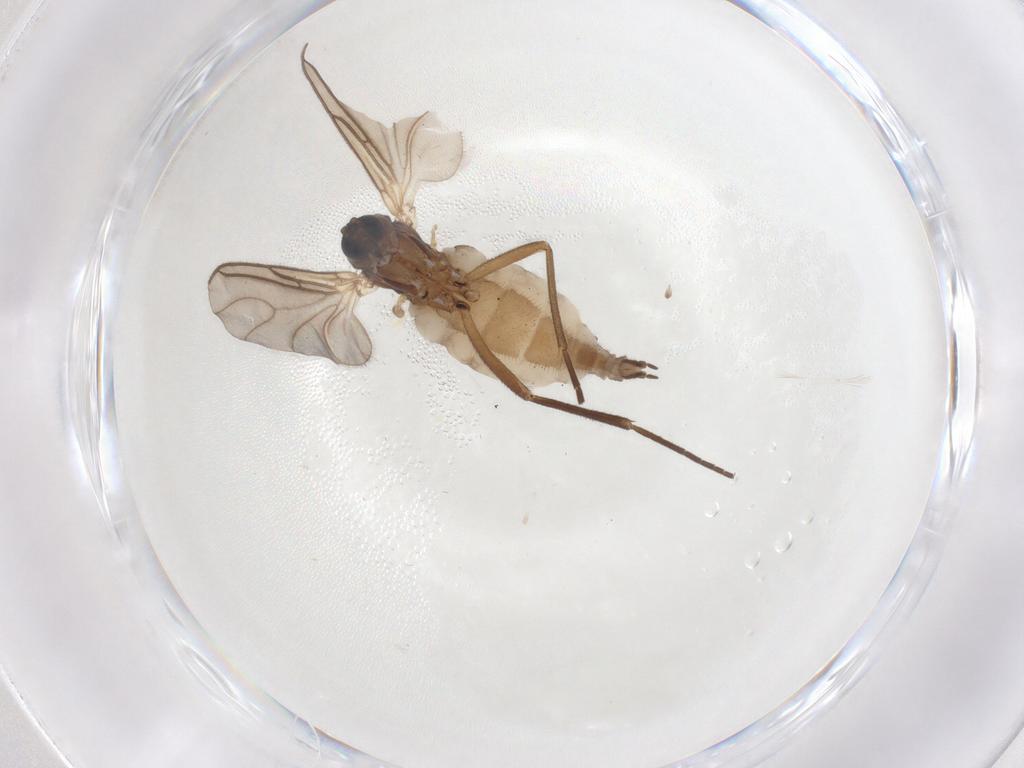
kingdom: Animalia
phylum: Arthropoda
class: Insecta
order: Diptera
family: Sciaridae
